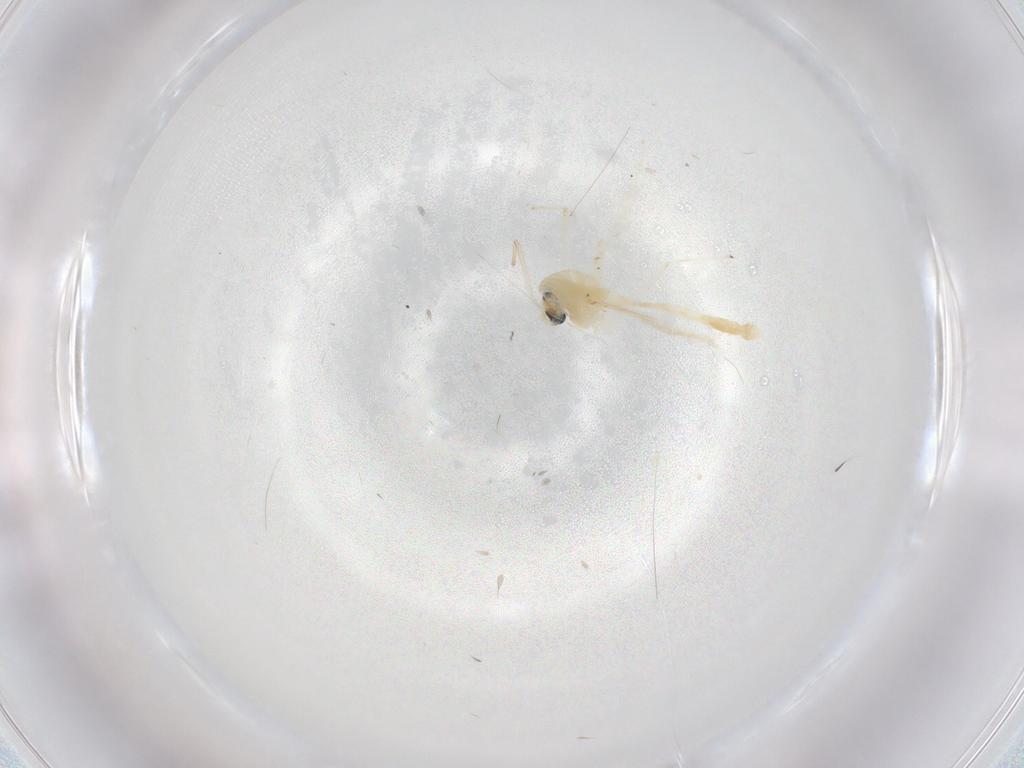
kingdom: Animalia
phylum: Arthropoda
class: Insecta
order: Diptera
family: Chironomidae
